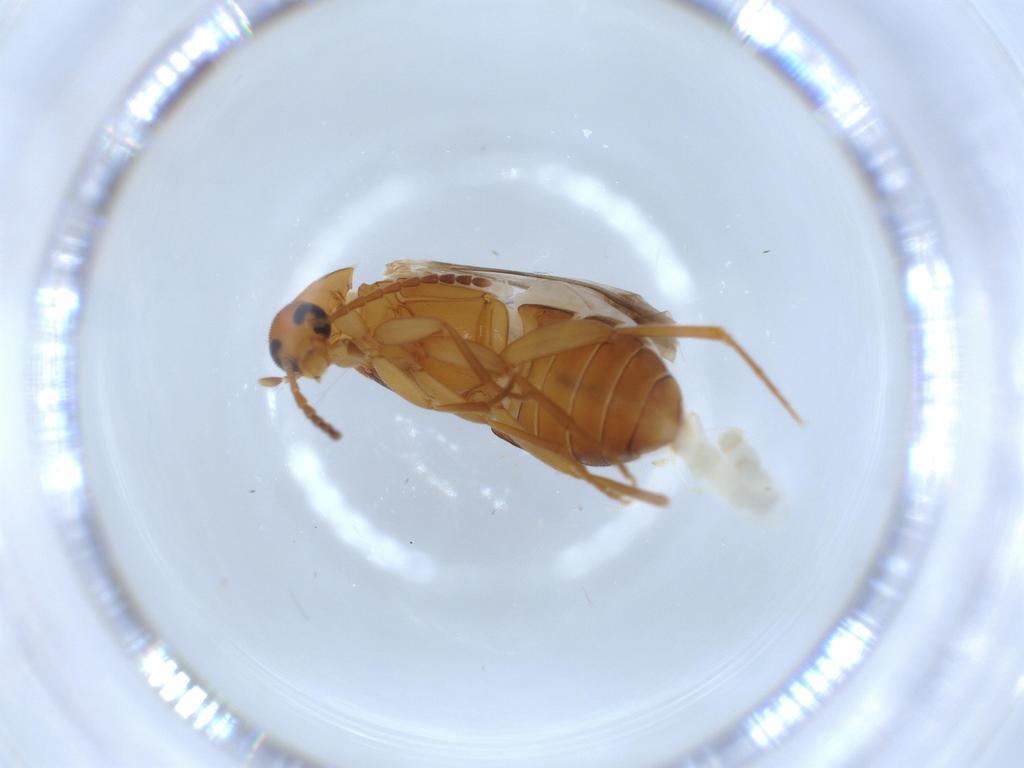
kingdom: Animalia
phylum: Arthropoda
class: Insecta
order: Coleoptera
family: Scraptiidae
